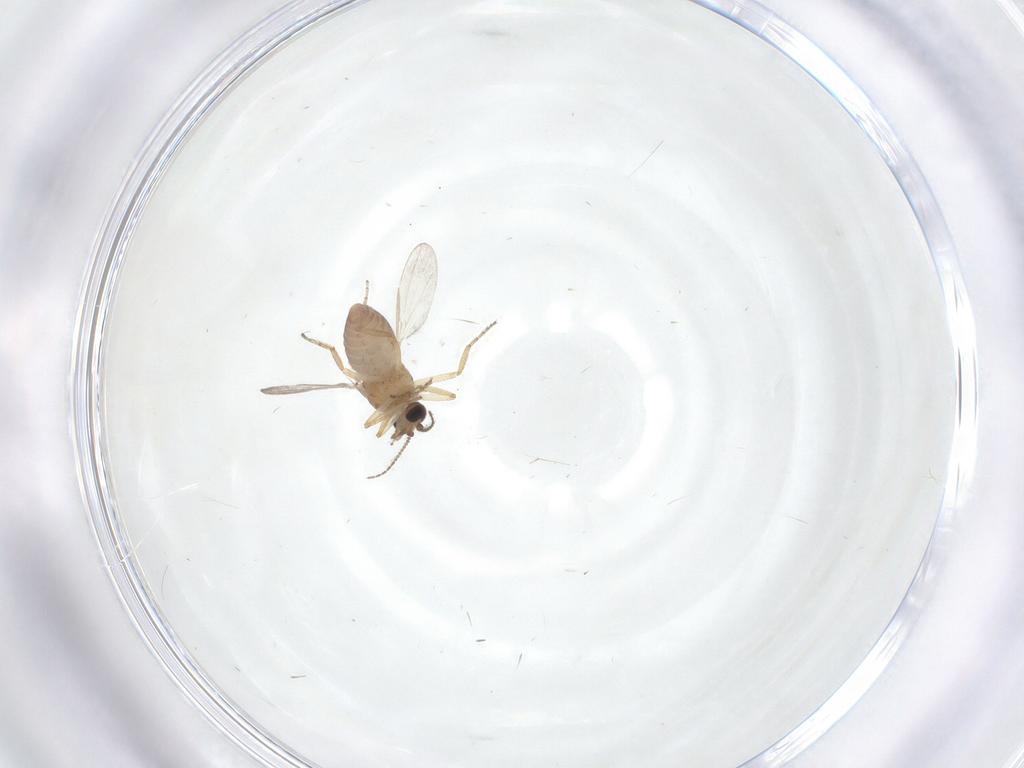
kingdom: Animalia
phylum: Arthropoda
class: Insecta
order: Diptera
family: Ceratopogonidae
